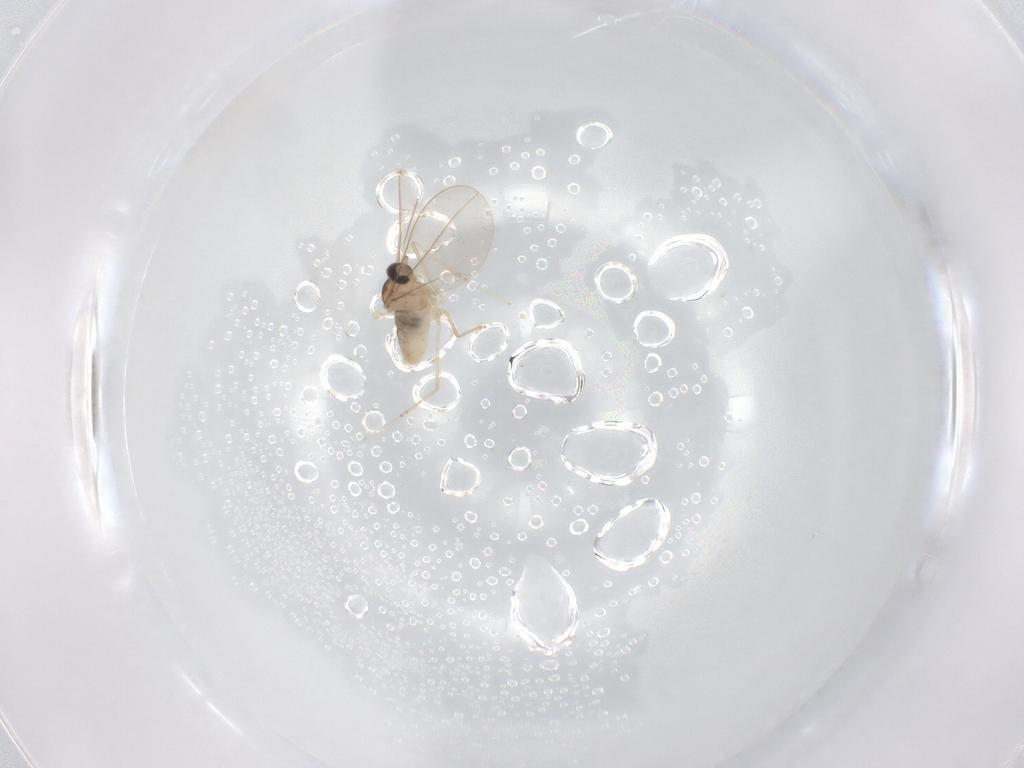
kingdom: Animalia
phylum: Arthropoda
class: Insecta
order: Diptera
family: Cecidomyiidae
